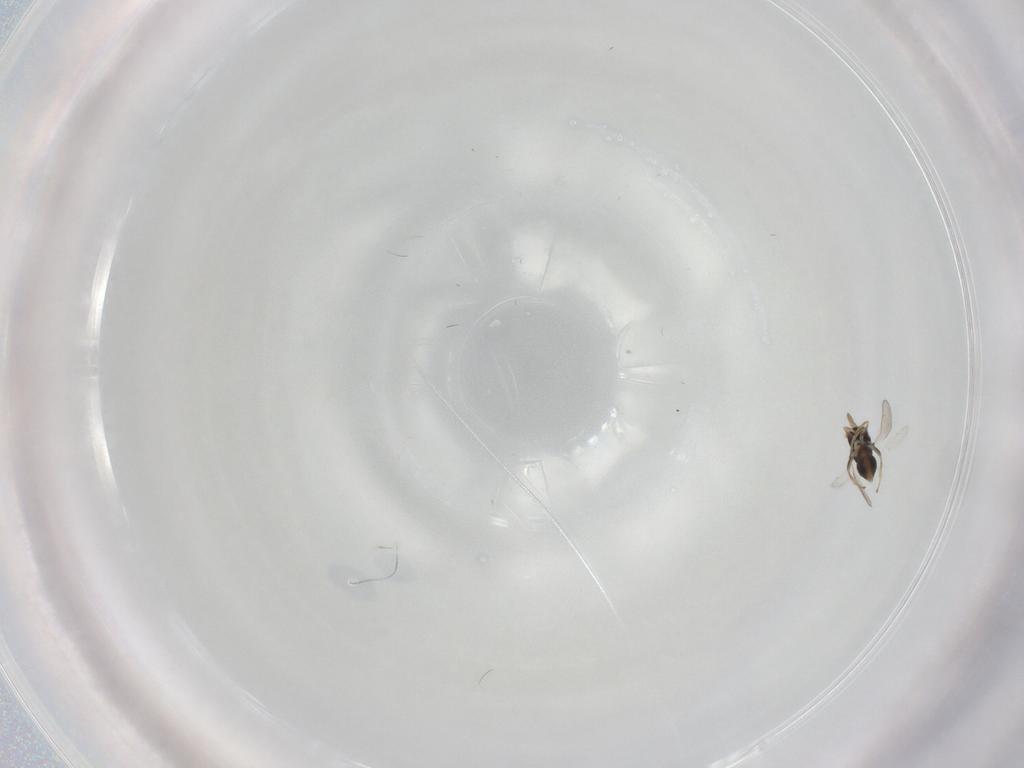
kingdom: Animalia
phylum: Arthropoda
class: Insecta
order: Hymenoptera
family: Aphelinidae
